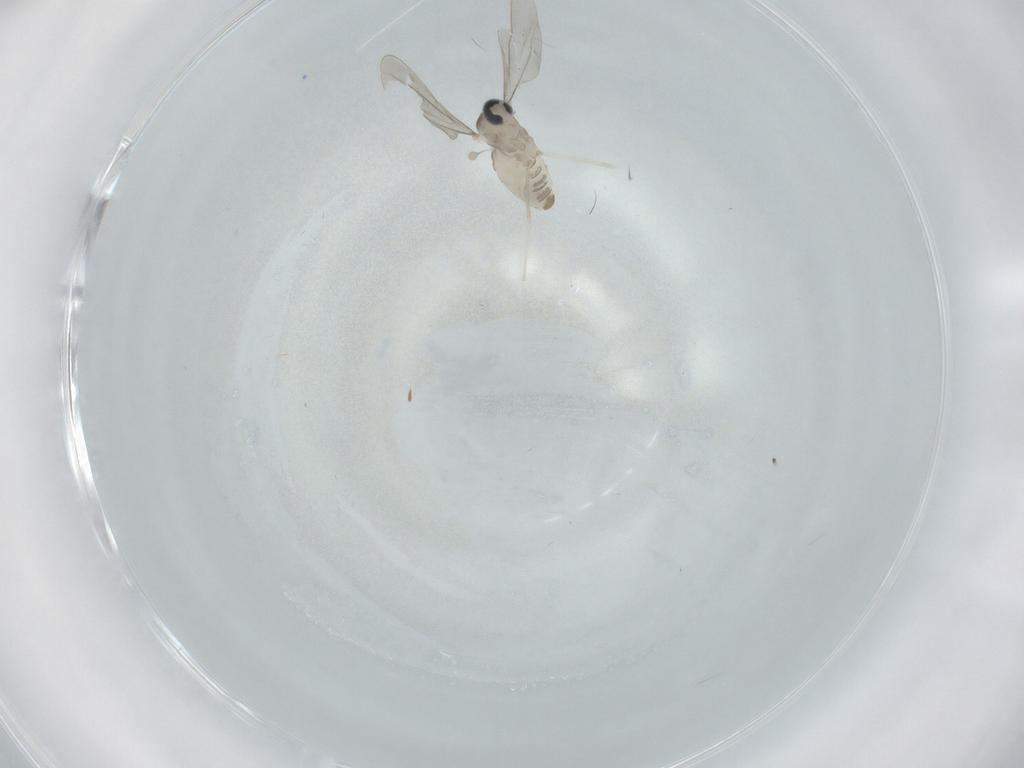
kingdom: Animalia
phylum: Arthropoda
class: Insecta
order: Diptera
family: Cecidomyiidae
